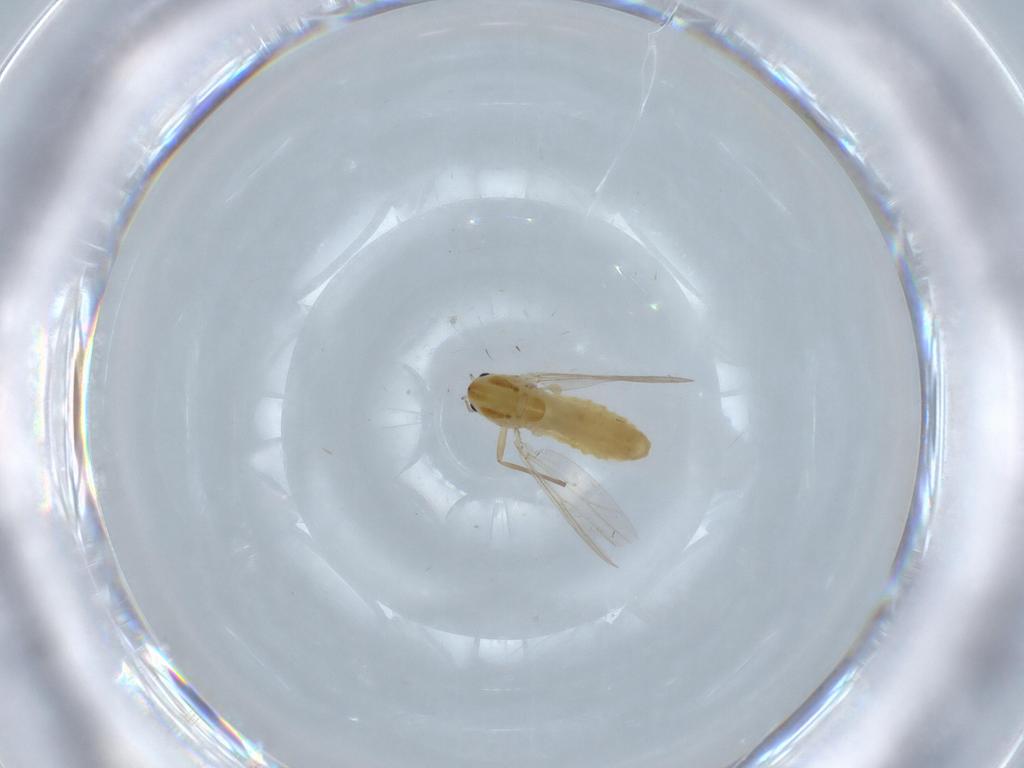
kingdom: Animalia
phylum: Arthropoda
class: Insecta
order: Diptera
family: Chironomidae
